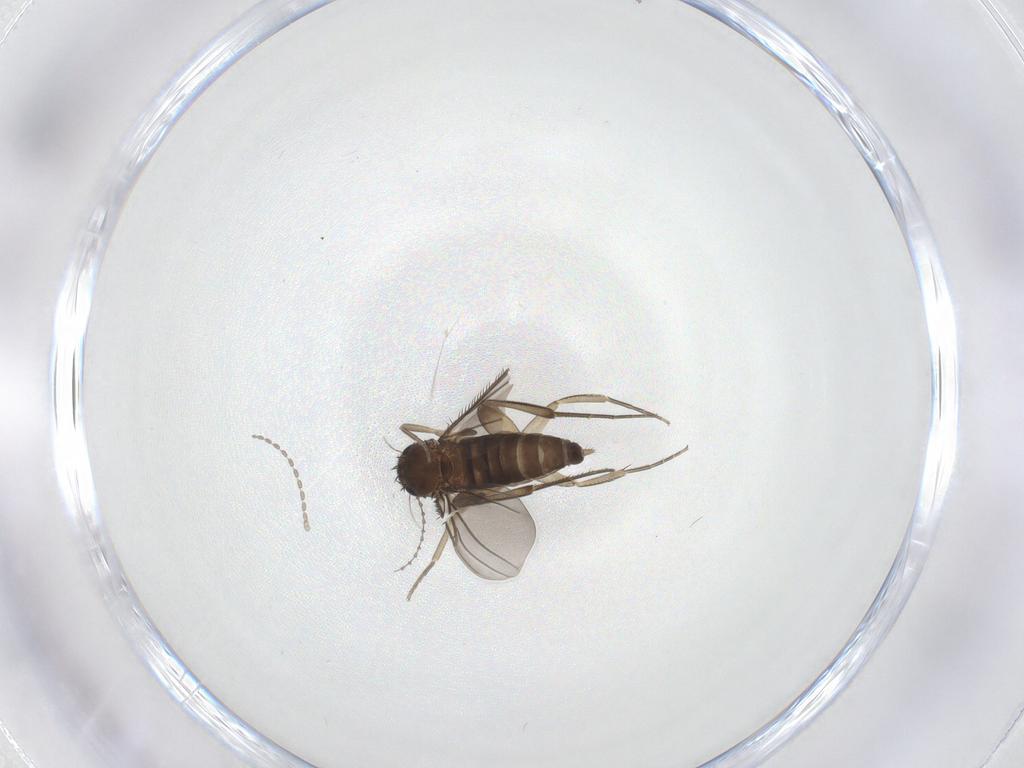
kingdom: Animalia
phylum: Arthropoda
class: Insecta
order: Diptera
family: Phoridae
